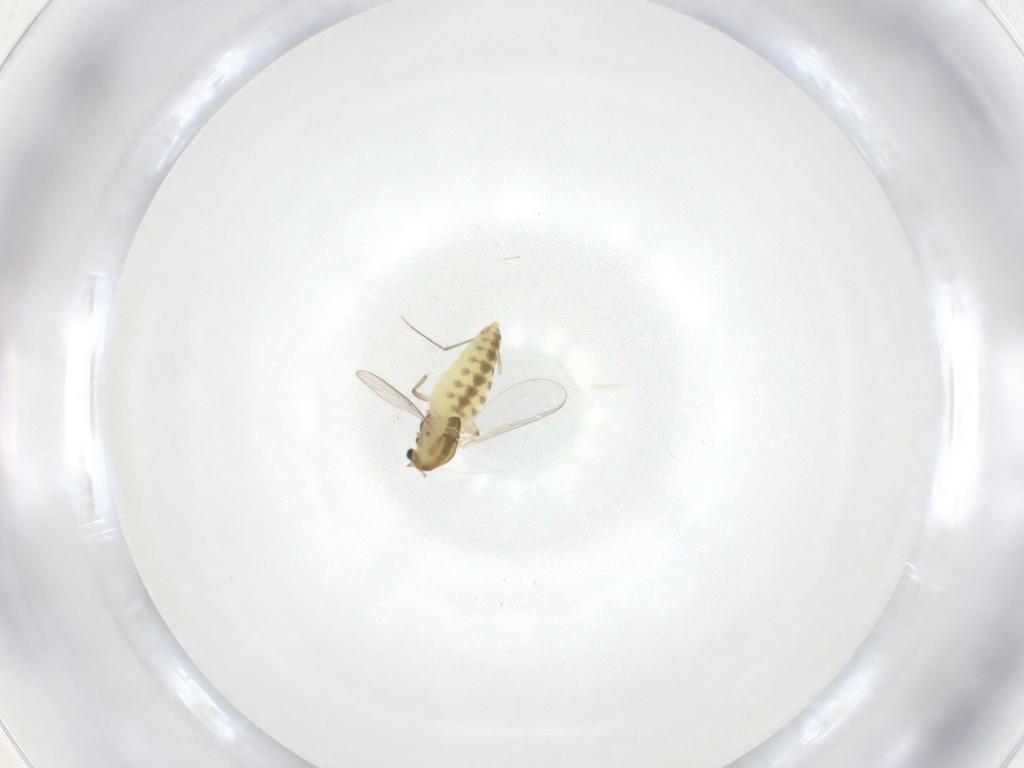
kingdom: Animalia
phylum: Arthropoda
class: Insecta
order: Diptera
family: Chironomidae
